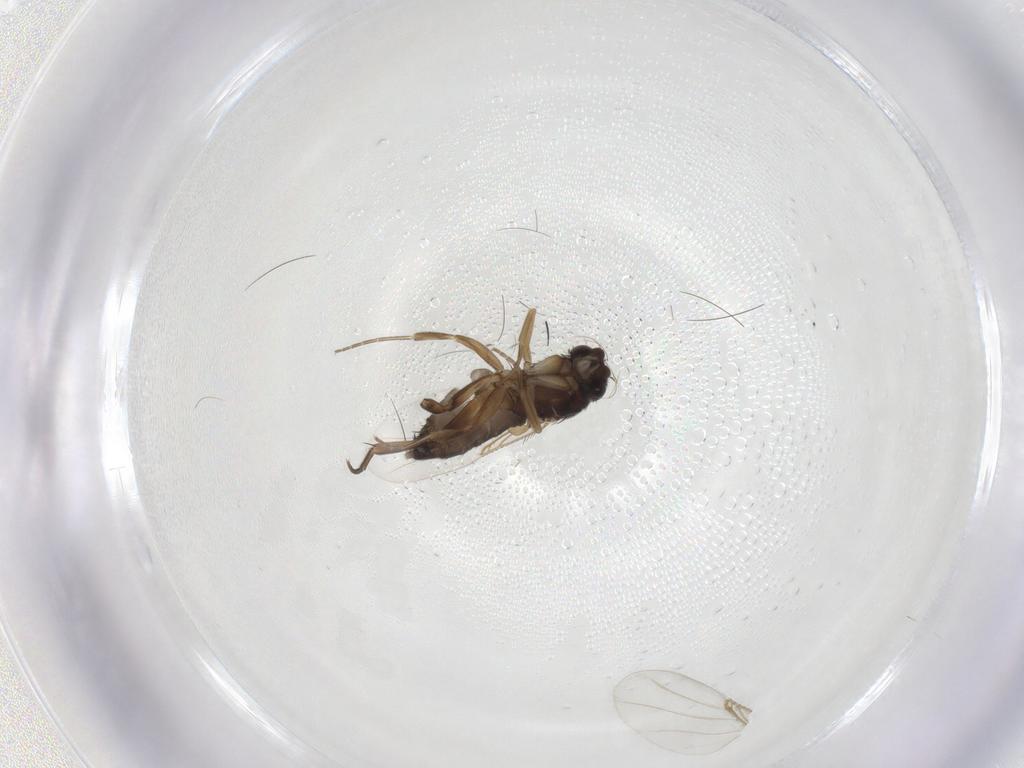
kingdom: Animalia
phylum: Arthropoda
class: Insecta
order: Diptera
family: Phoridae
